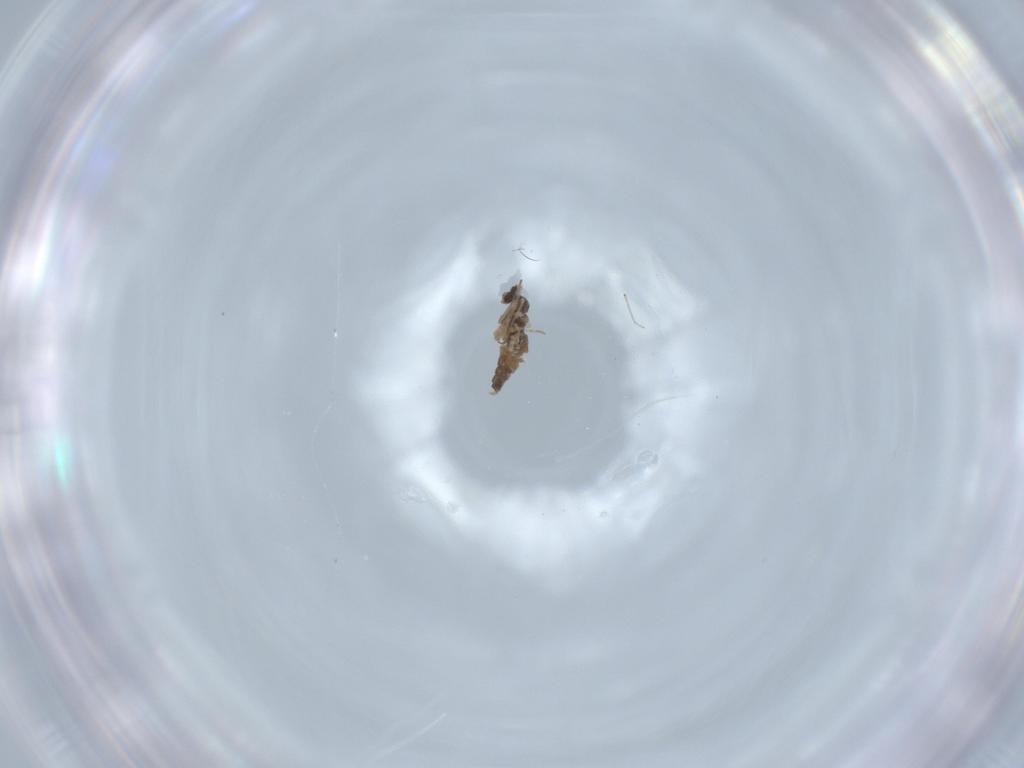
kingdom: Animalia
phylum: Arthropoda
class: Insecta
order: Diptera
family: Cecidomyiidae
